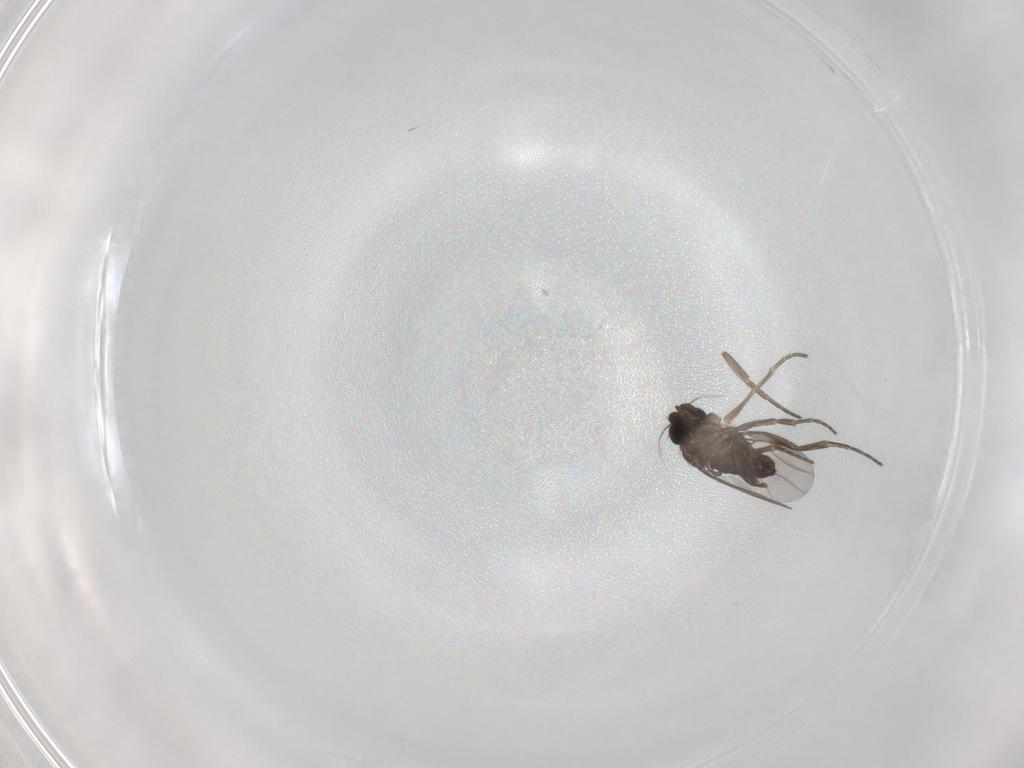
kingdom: Animalia
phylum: Arthropoda
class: Insecta
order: Diptera
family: Phoridae
